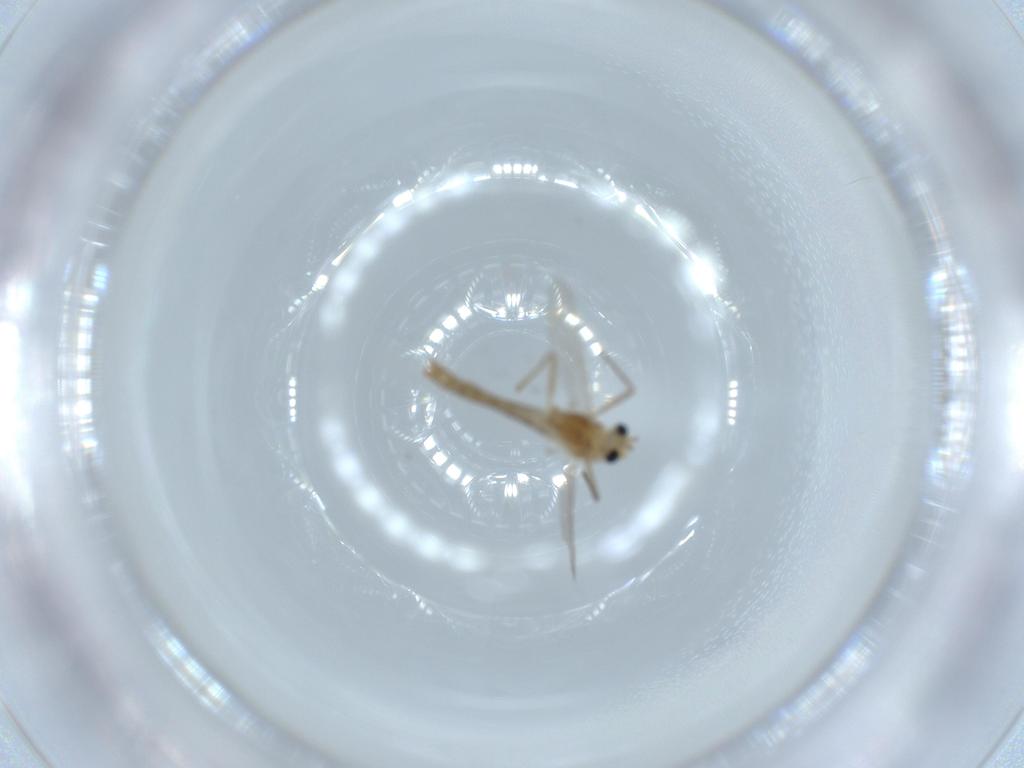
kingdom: Animalia
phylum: Arthropoda
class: Insecta
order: Diptera
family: Chironomidae
